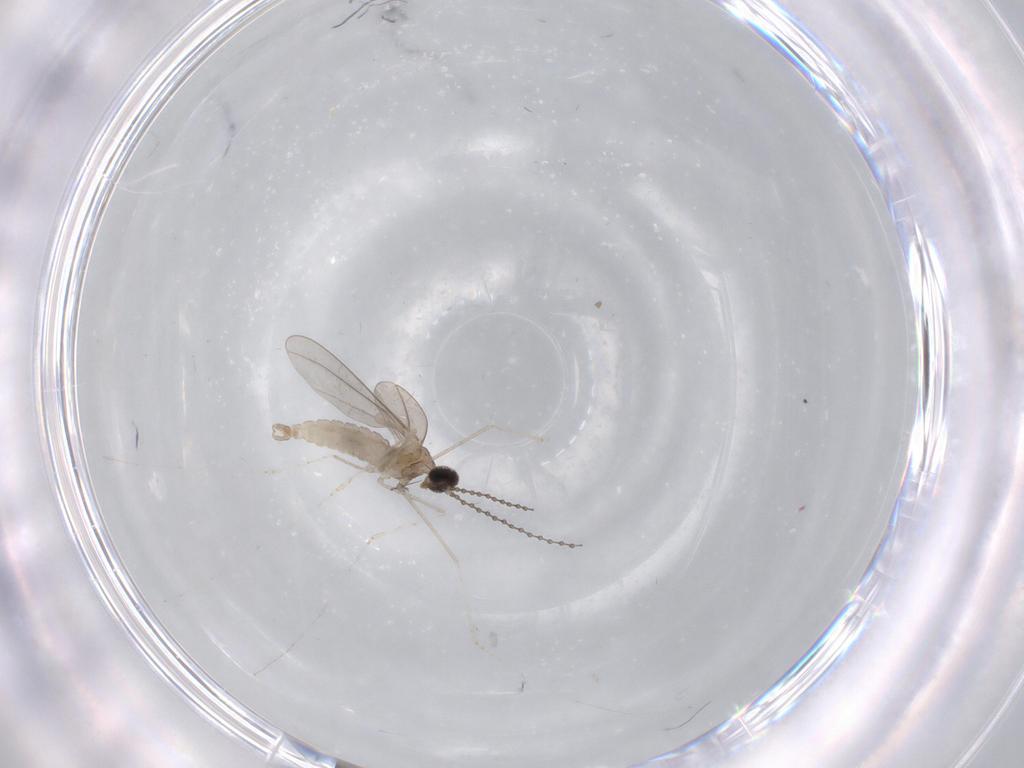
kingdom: Animalia
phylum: Arthropoda
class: Insecta
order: Diptera
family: Cecidomyiidae
